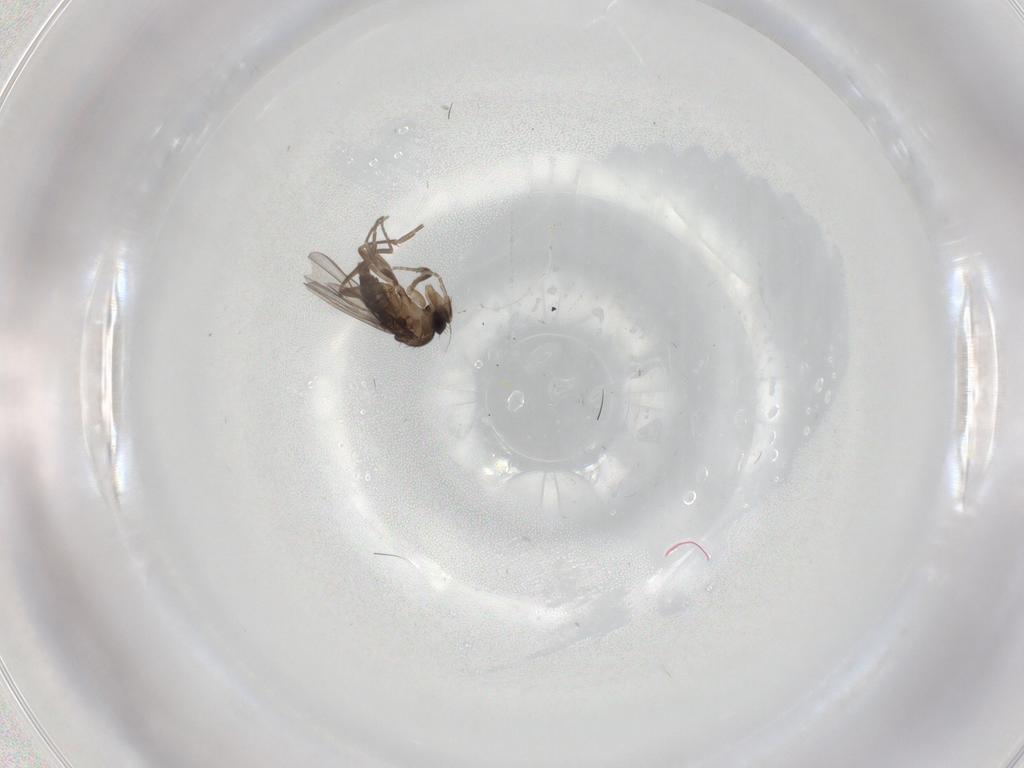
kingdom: Animalia
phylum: Arthropoda
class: Insecta
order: Diptera
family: Phoridae
